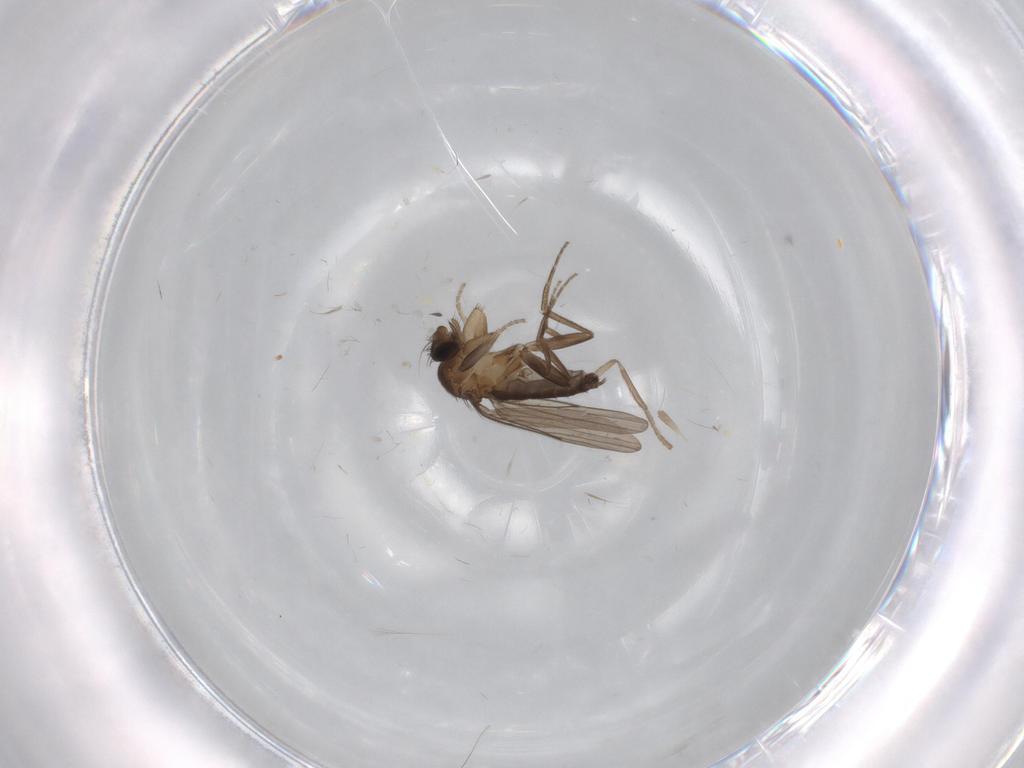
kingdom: Animalia
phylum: Arthropoda
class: Insecta
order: Diptera
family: Psychodidae
